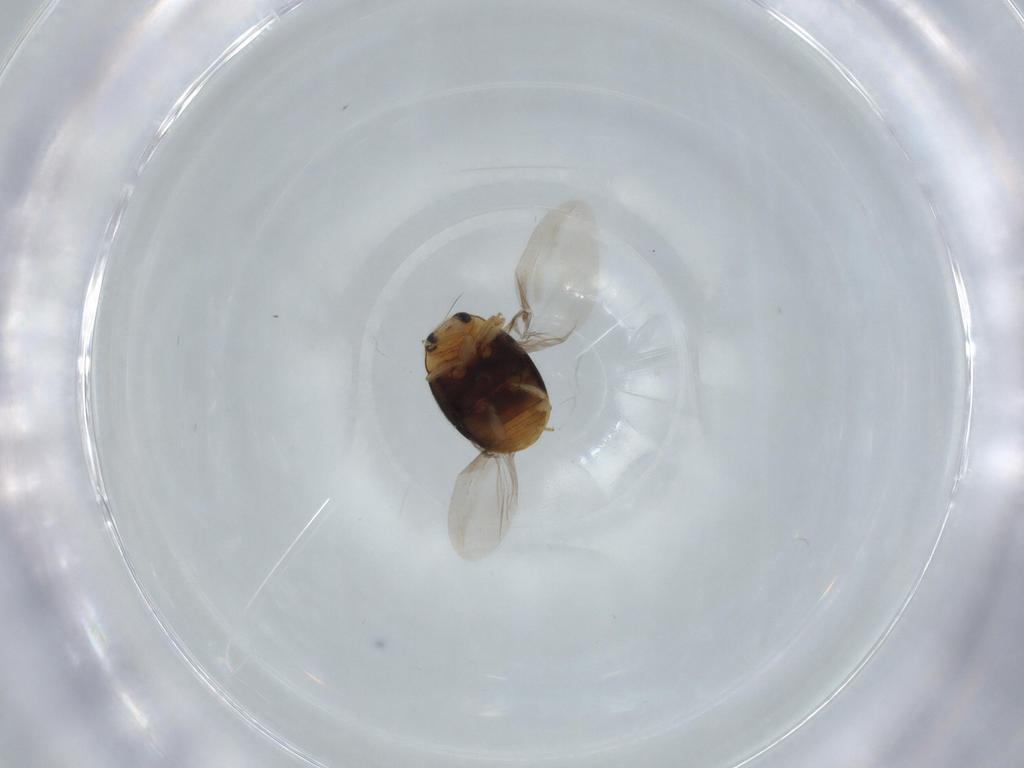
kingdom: Animalia
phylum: Arthropoda
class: Insecta
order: Coleoptera
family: Coccinellidae
